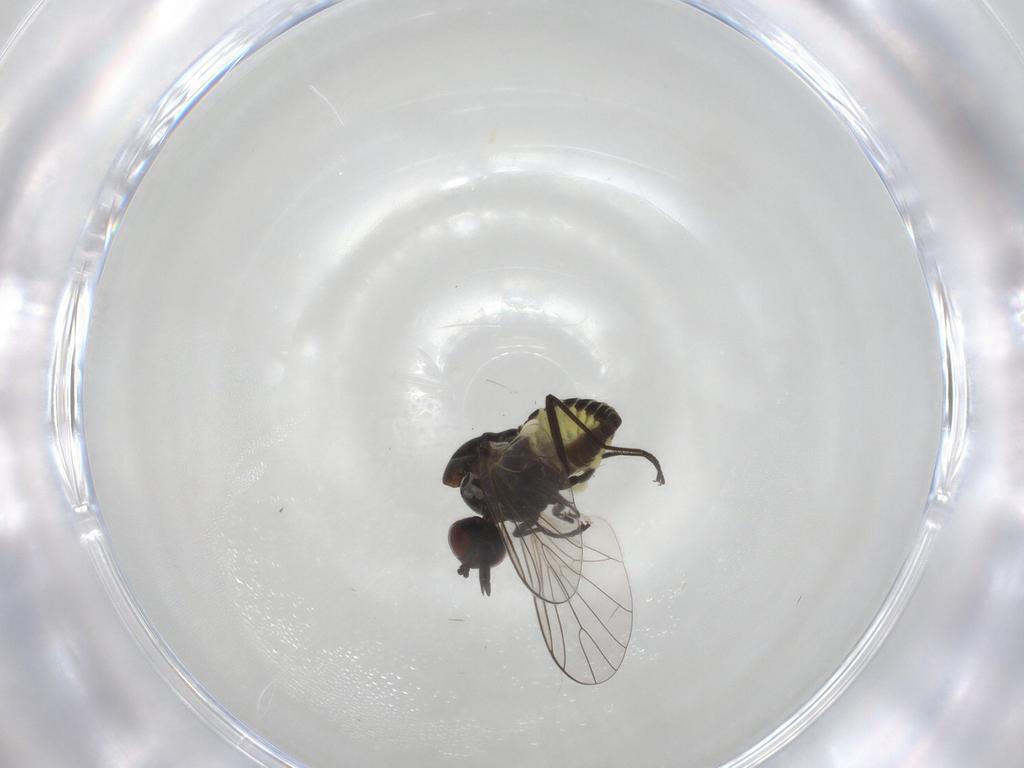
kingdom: Animalia
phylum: Arthropoda
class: Insecta
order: Diptera
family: Bombyliidae
